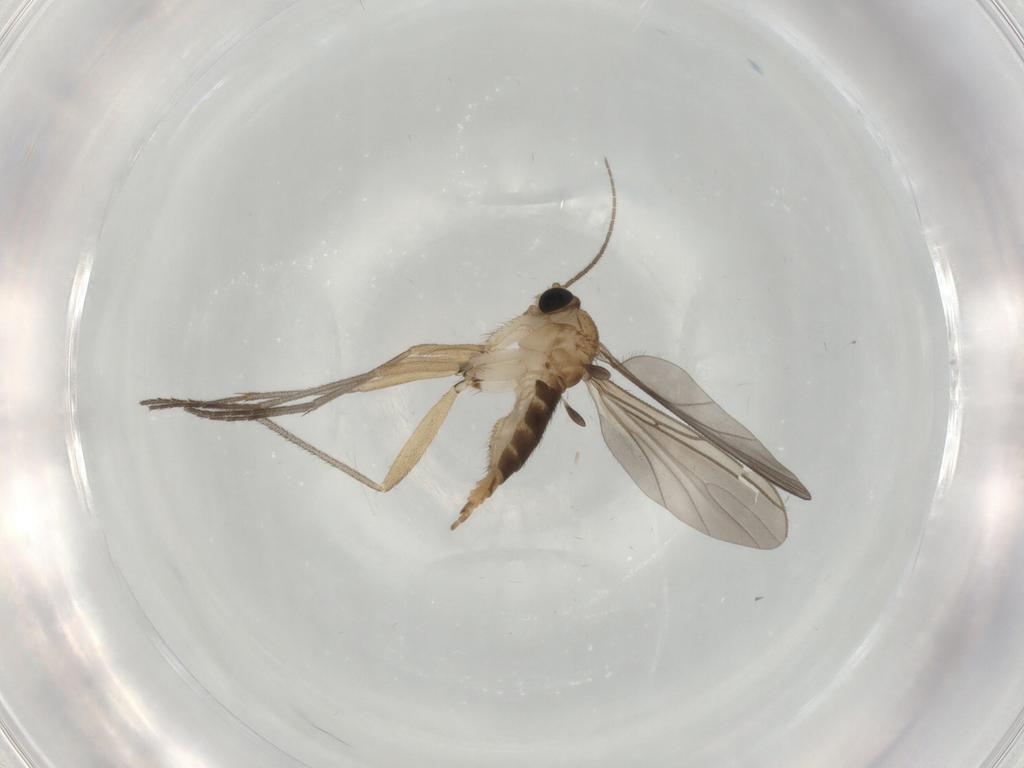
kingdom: Animalia
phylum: Arthropoda
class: Insecta
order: Diptera
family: Sciaridae
